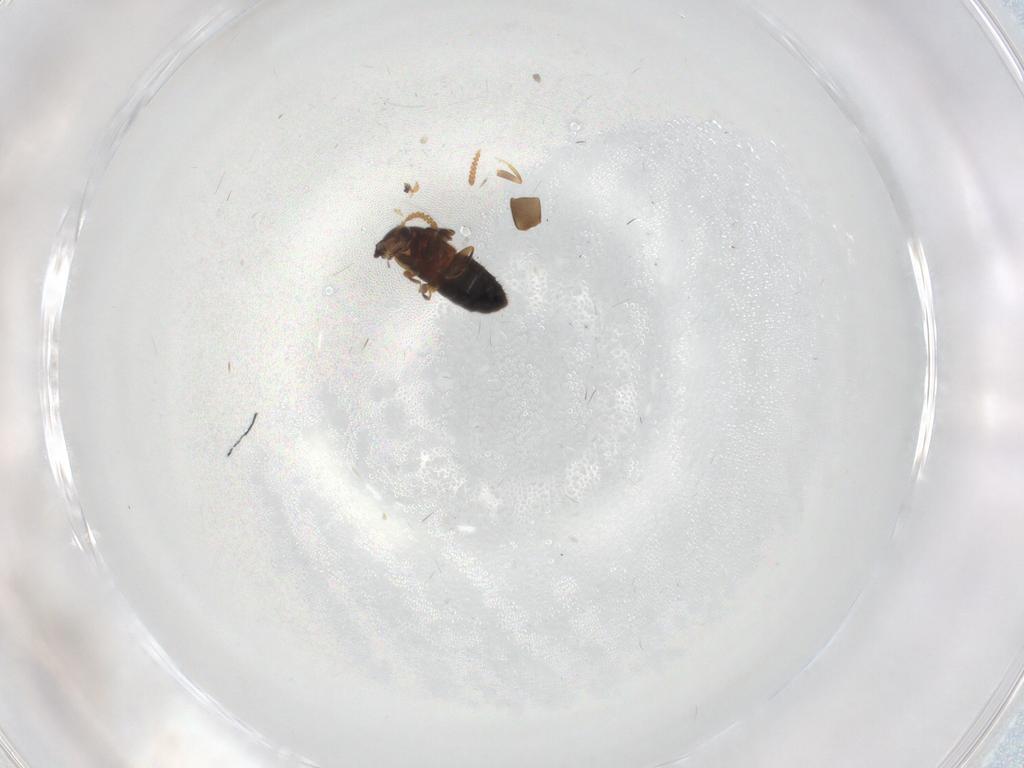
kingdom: Animalia
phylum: Arthropoda
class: Insecta
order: Coleoptera
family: Staphylinidae
